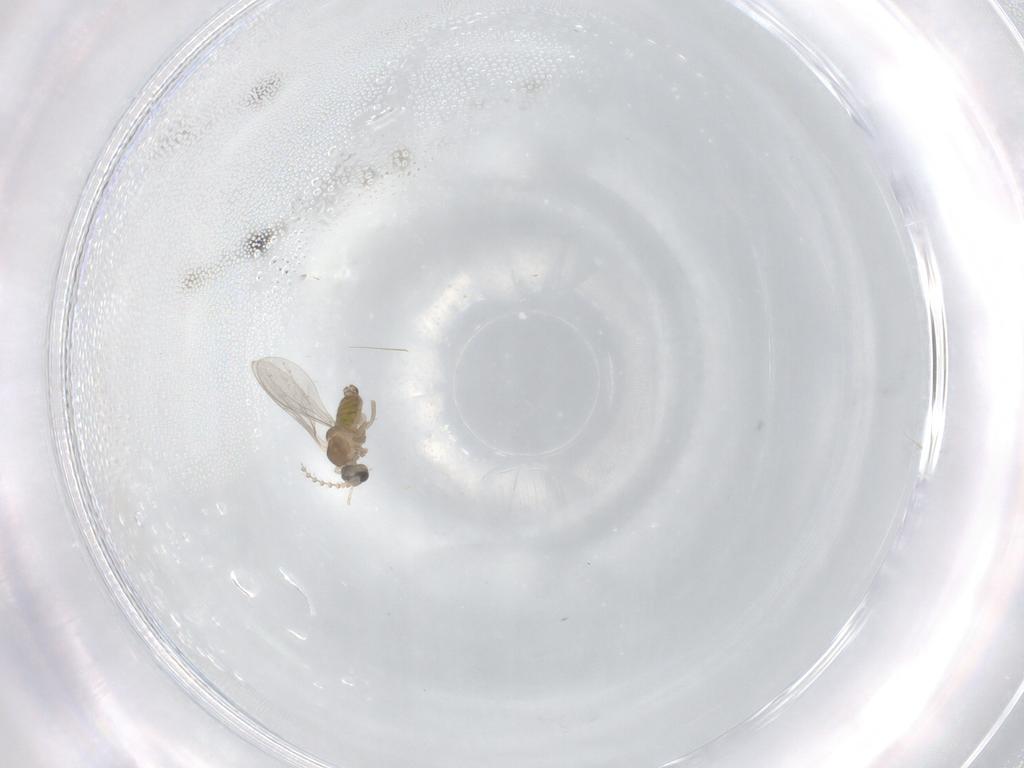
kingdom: Animalia
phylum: Arthropoda
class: Insecta
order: Diptera
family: Cecidomyiidae
